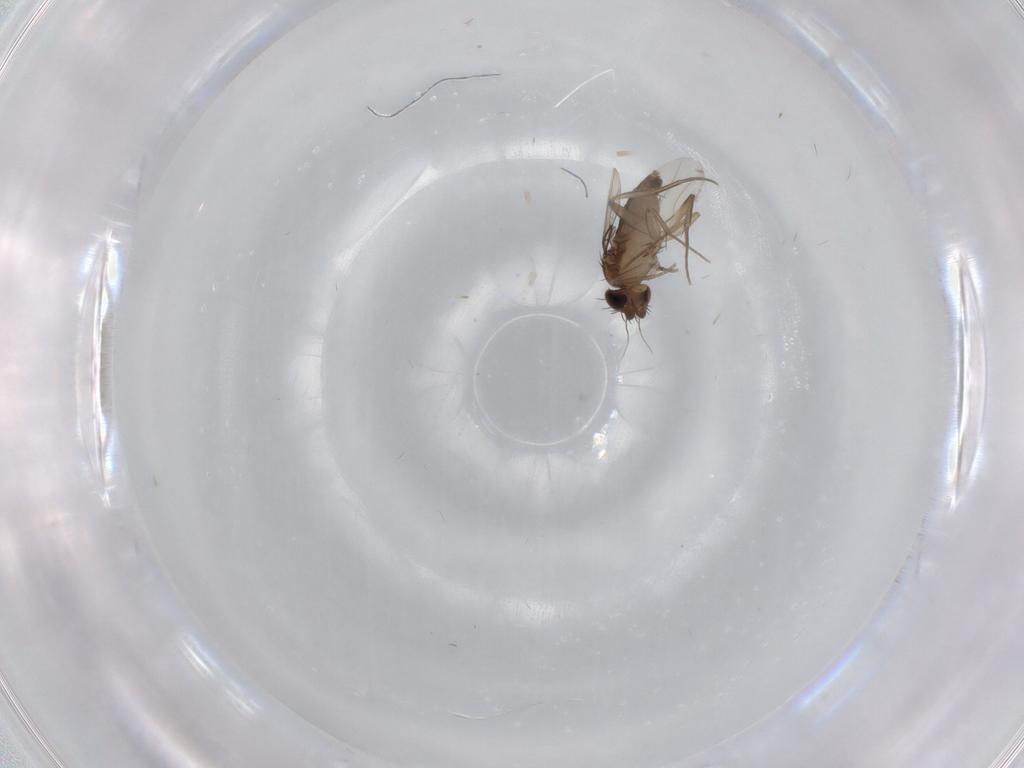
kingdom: Animalia
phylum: Arthropoda
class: Insecta
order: Diptera
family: Phoridae
